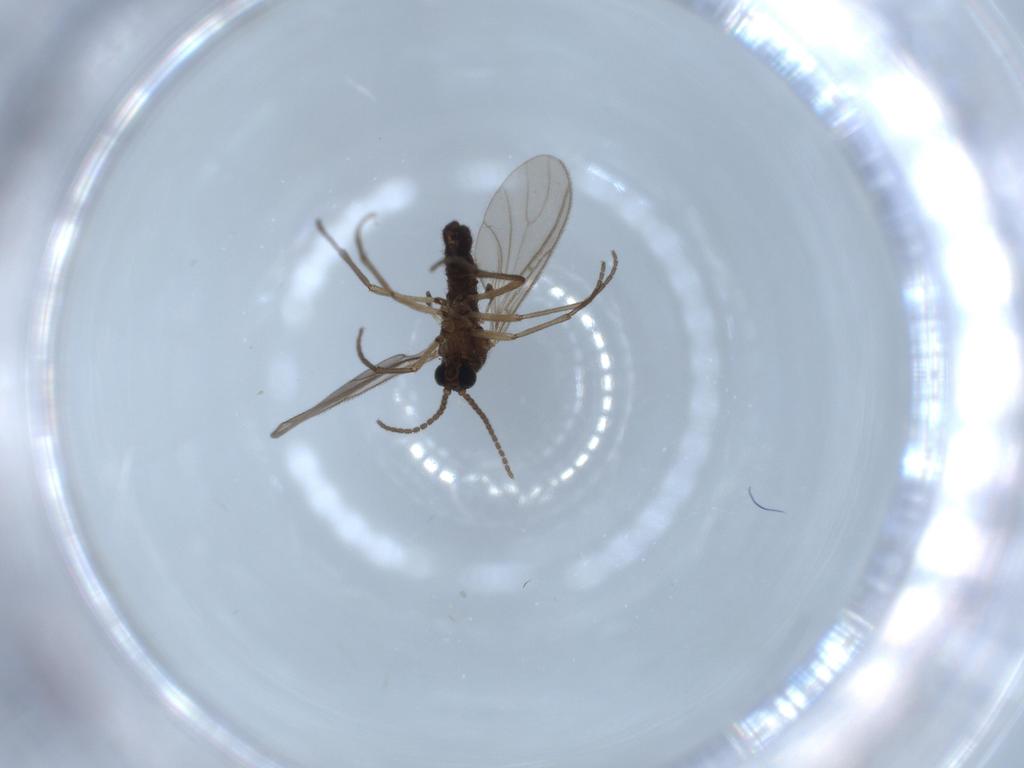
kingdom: Animalia
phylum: Arthropoda
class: Insecta
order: Diptera
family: Sciaridae
